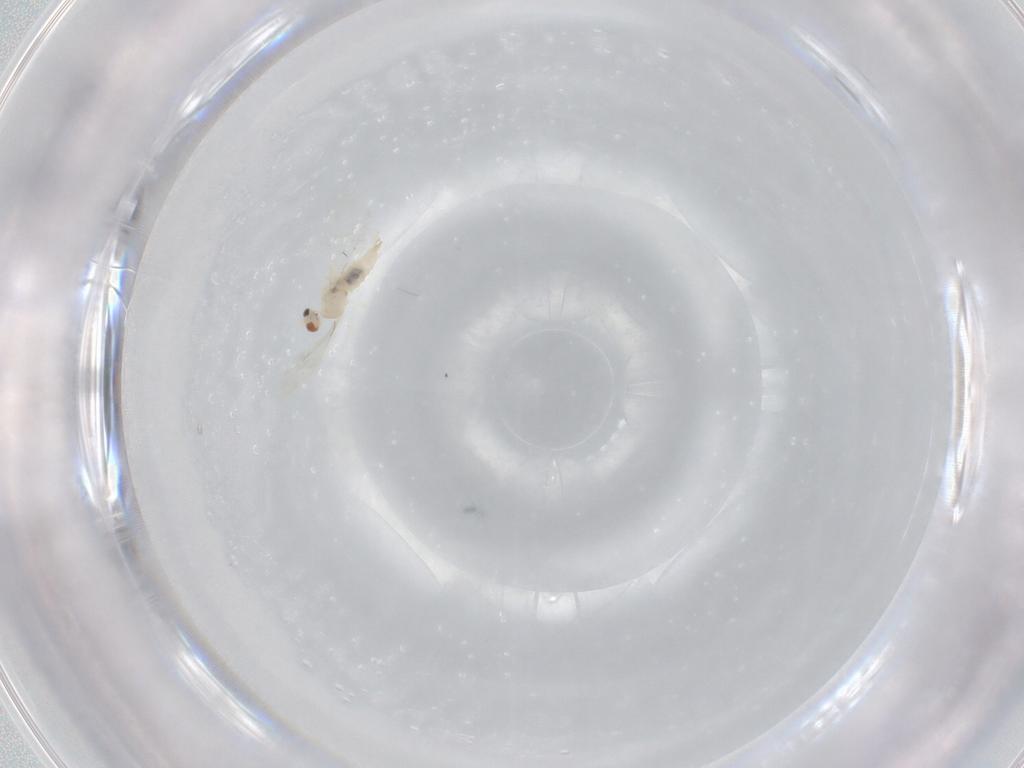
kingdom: Animalia
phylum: Arthropoda
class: Insecta
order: Diptera
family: Cecidomyiidae
